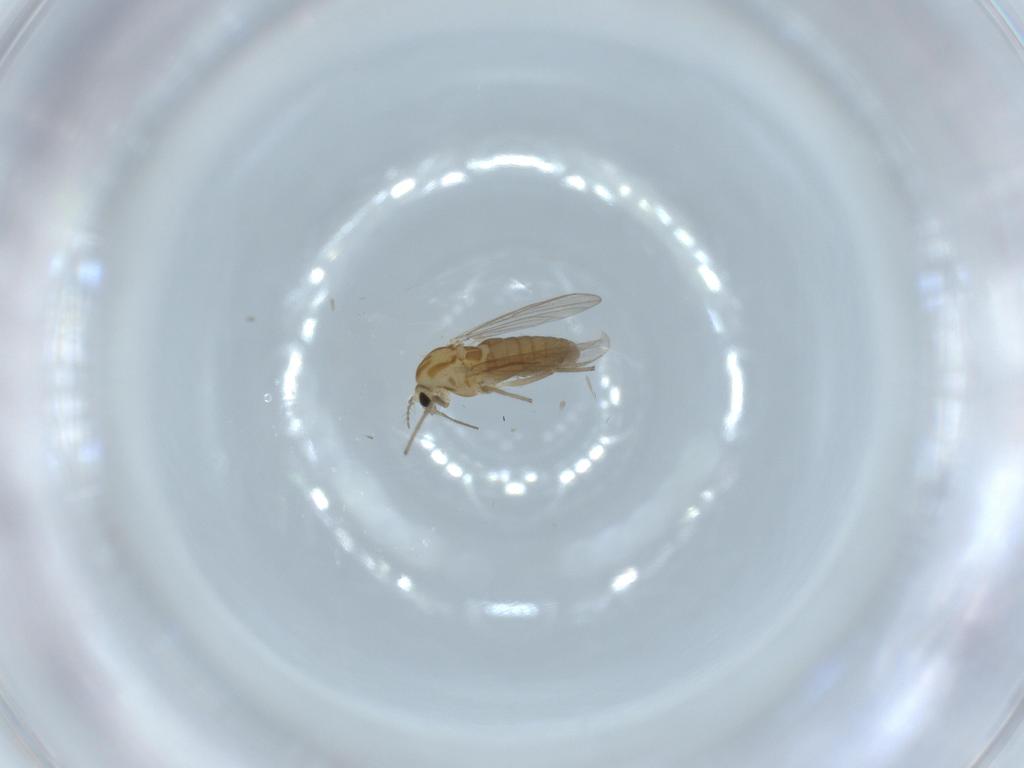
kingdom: Animalia
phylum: Arthropoda
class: Insecta
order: Diptera
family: Chironomidae
